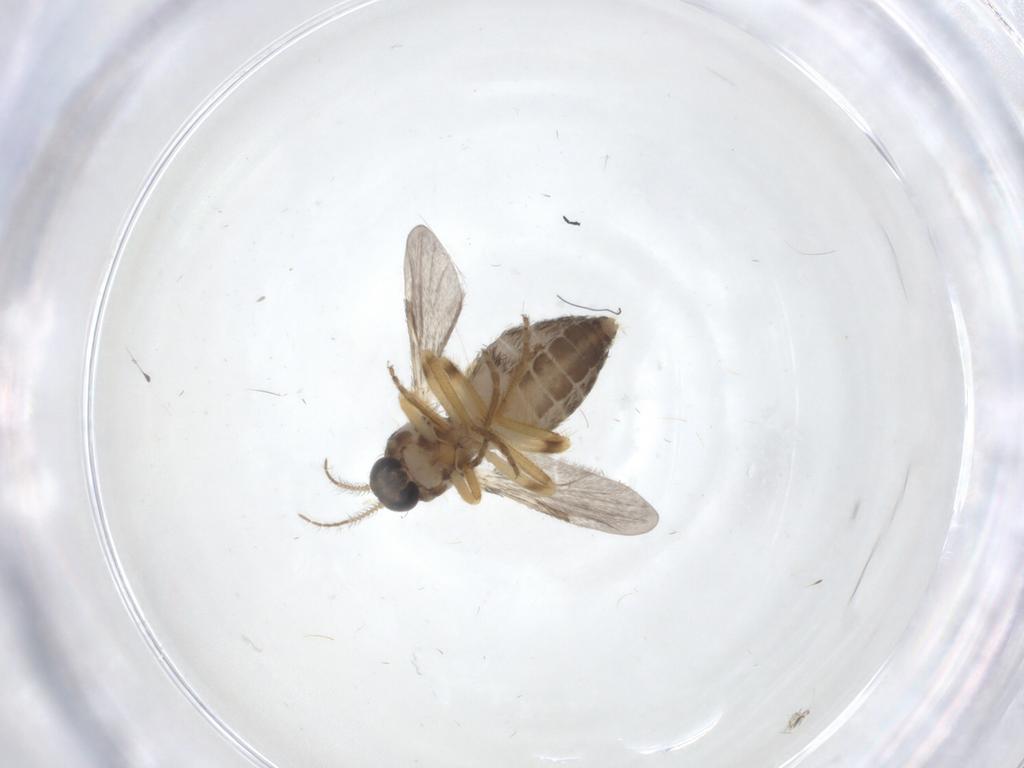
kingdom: Animalia
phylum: Arthropoda
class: Insecta
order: Diptera
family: Ceratopogonidae
